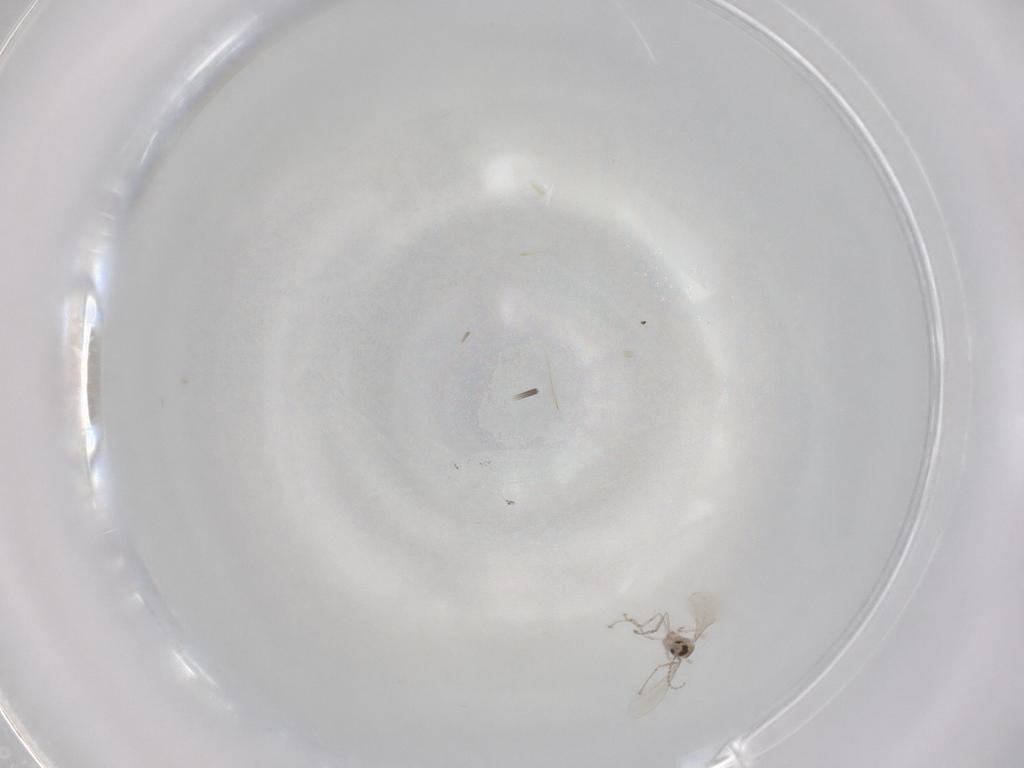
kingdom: Animalia
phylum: Arthropoda
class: Insecta
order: Diptera
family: Cecidomyiidae
